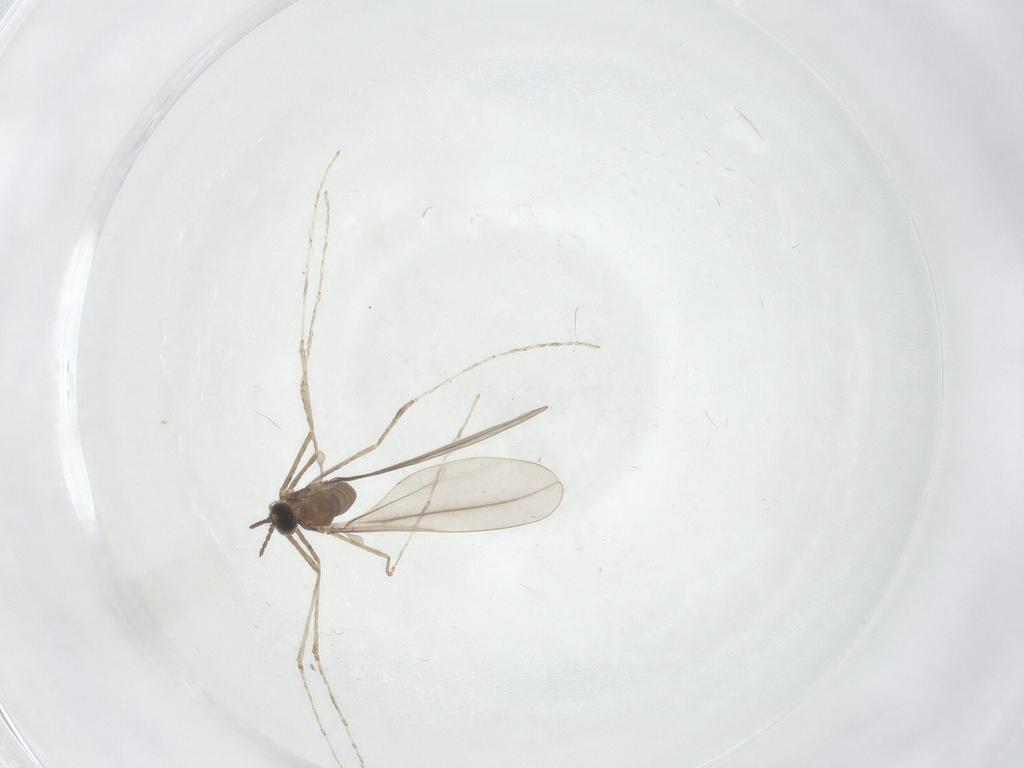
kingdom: Animalia
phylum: Arthropoda
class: Insecta
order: Diptera
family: Cecidomyiidae
